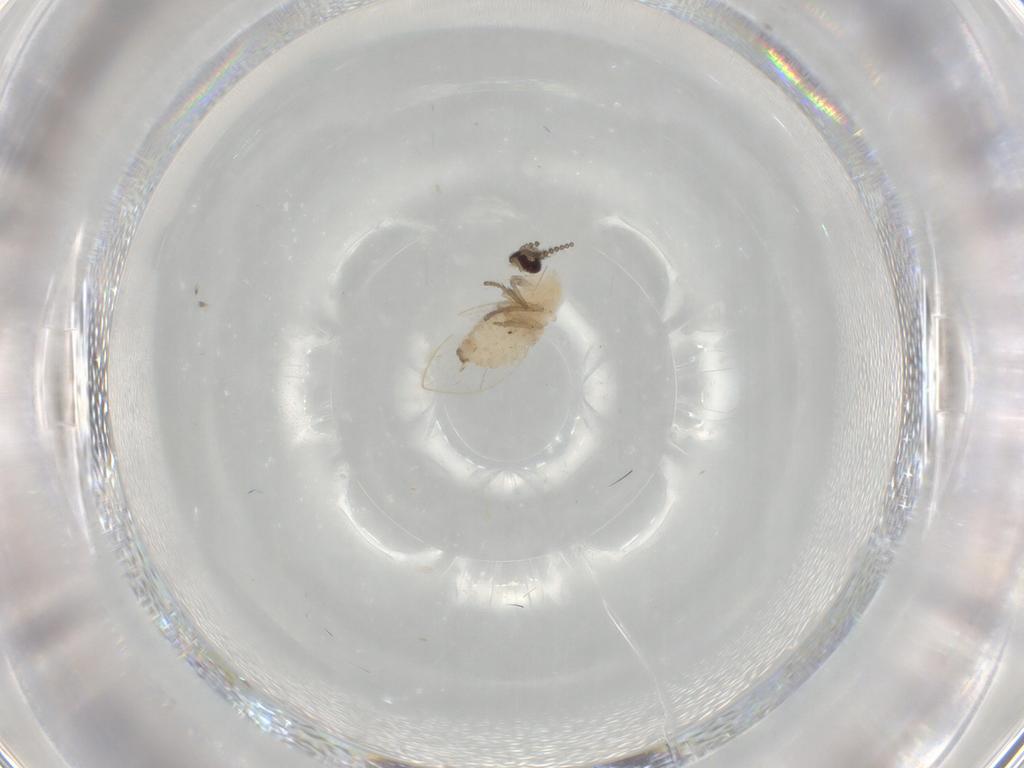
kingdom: Animalia
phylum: Arthropoda
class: Insecta
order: Diptera
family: Psychodidae
